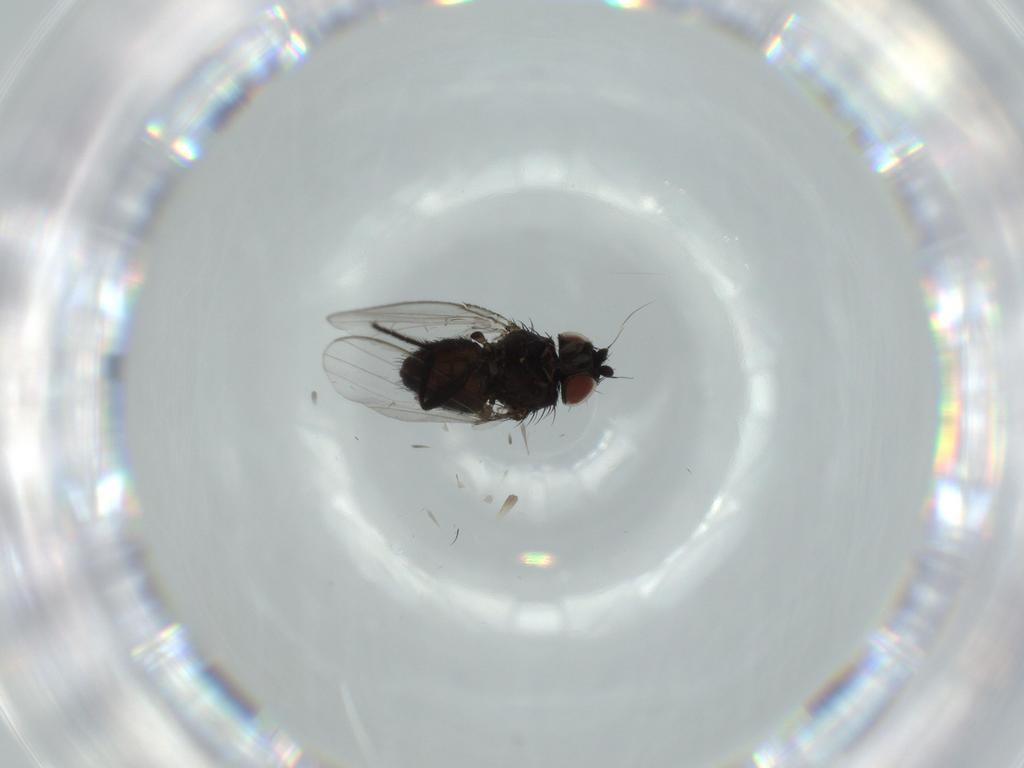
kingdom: Animalia
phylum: Arthropoda
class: Insecta
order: Diptera
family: Milichiidae
